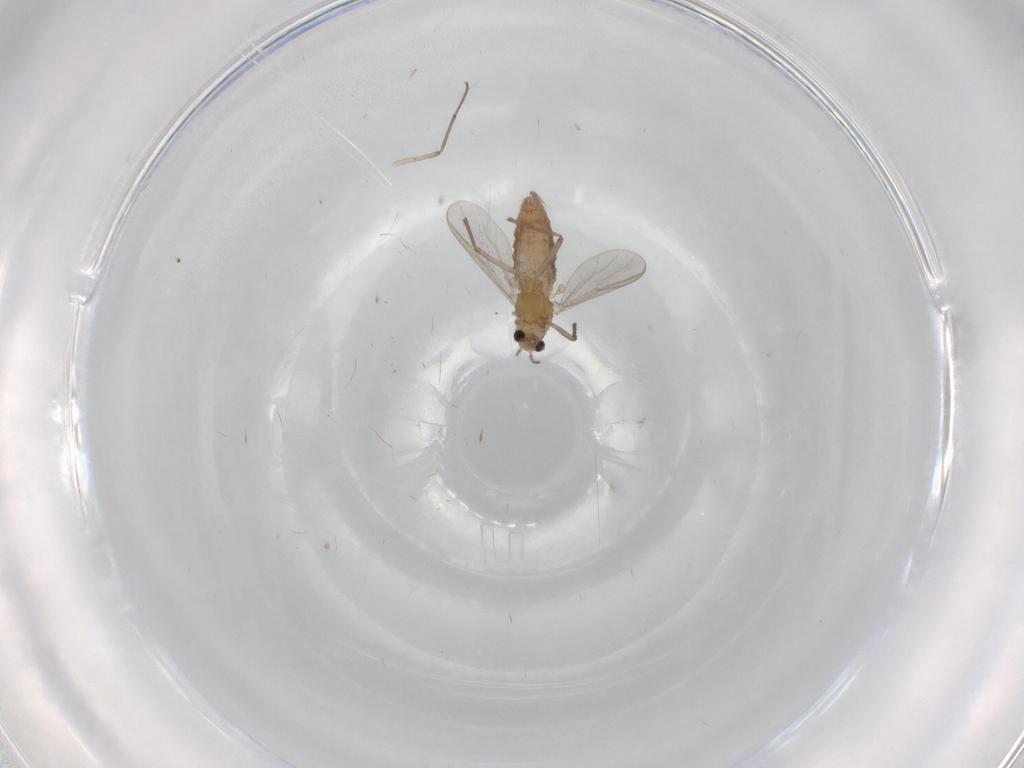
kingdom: Animalia
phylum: Arthropoda
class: Insecta
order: Diptera
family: Chironomidae
